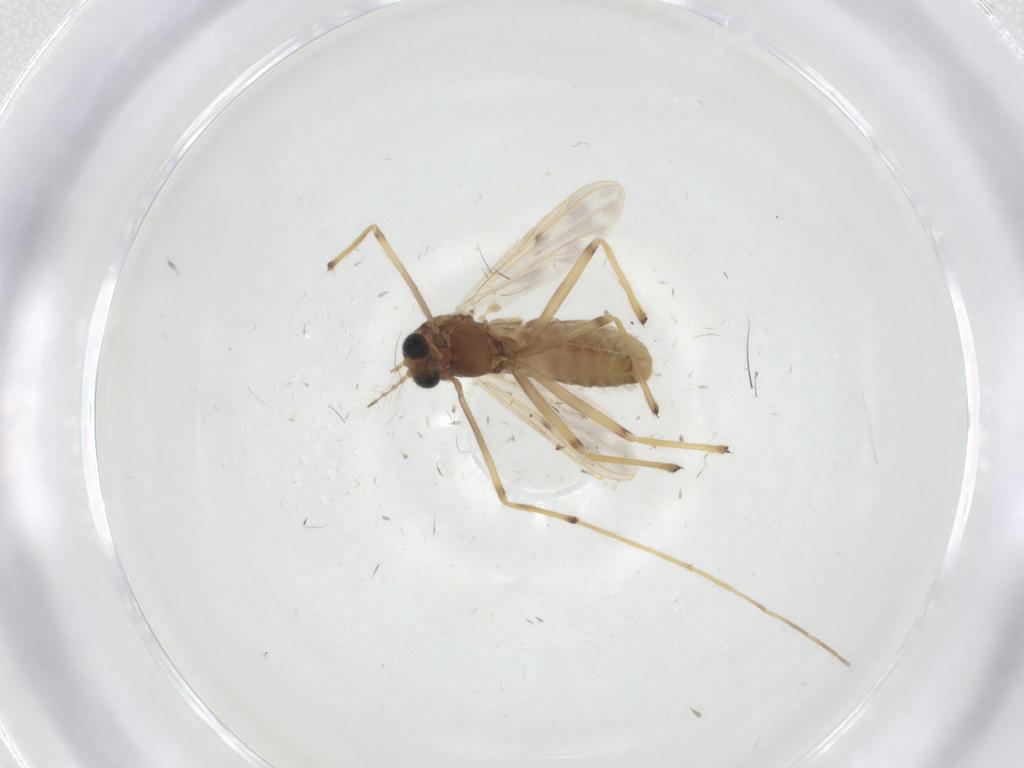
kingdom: Animalia
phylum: Arthropoda
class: Insecta
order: Diptera
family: Chironomidae
